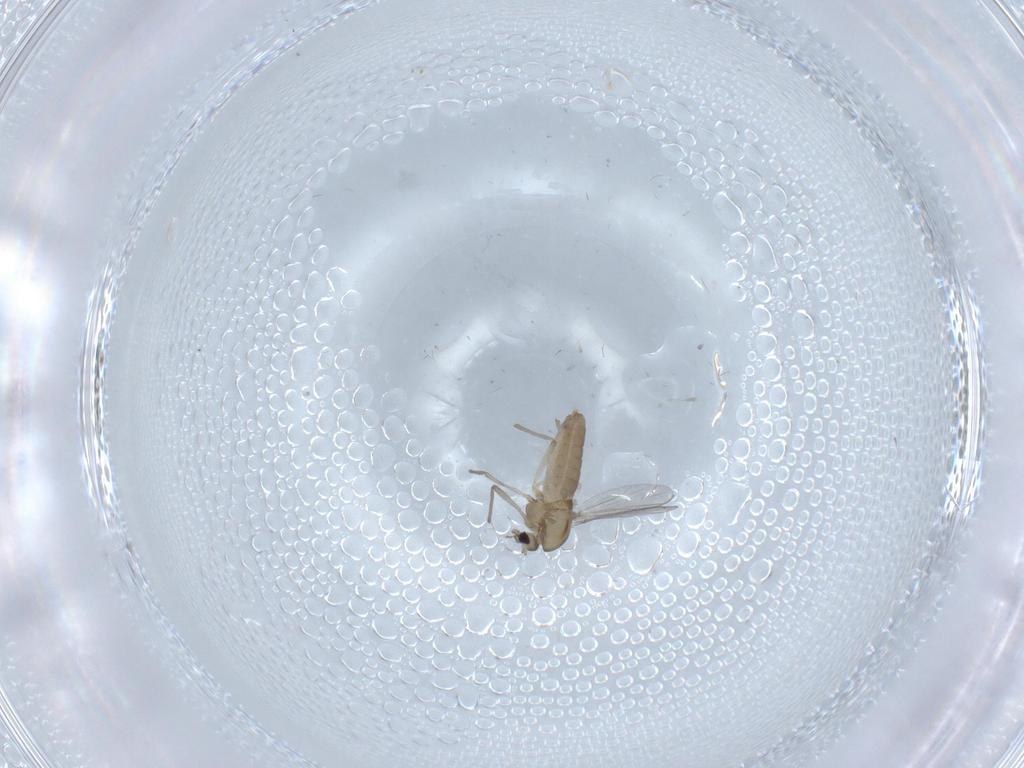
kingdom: Animalia
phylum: Arthropoda
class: Insecta
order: Diptera
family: Chironomidae
